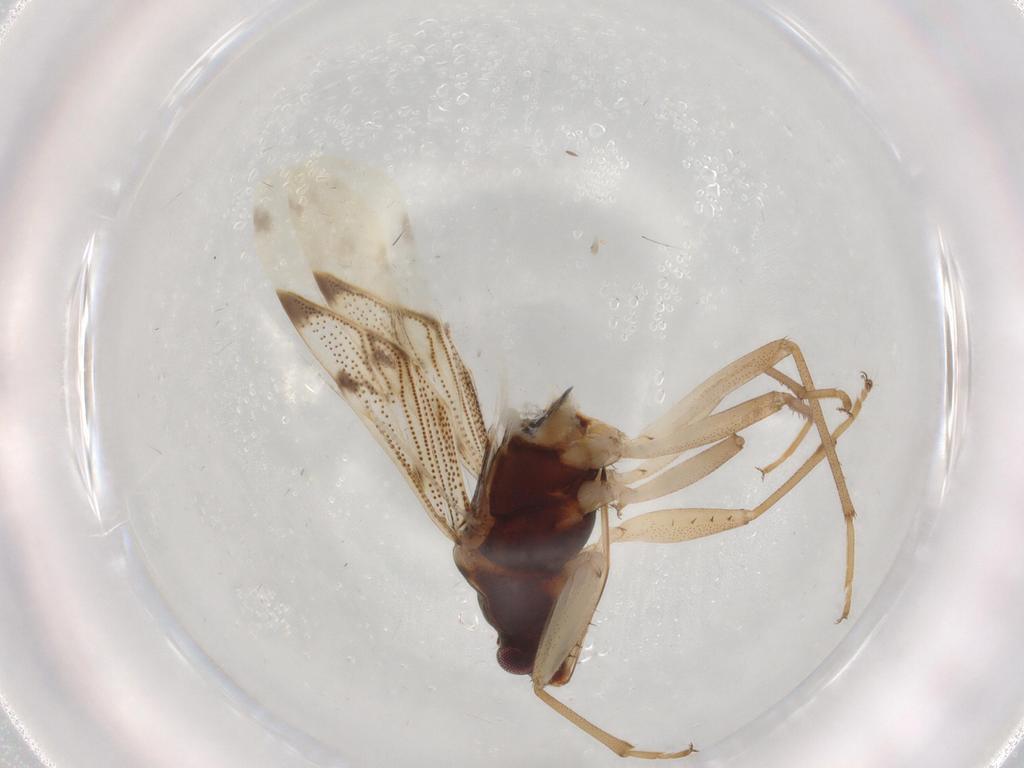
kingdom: Animalia
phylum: Arthropoda
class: Insecta
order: Hemiptera
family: Rhyparochromidae
